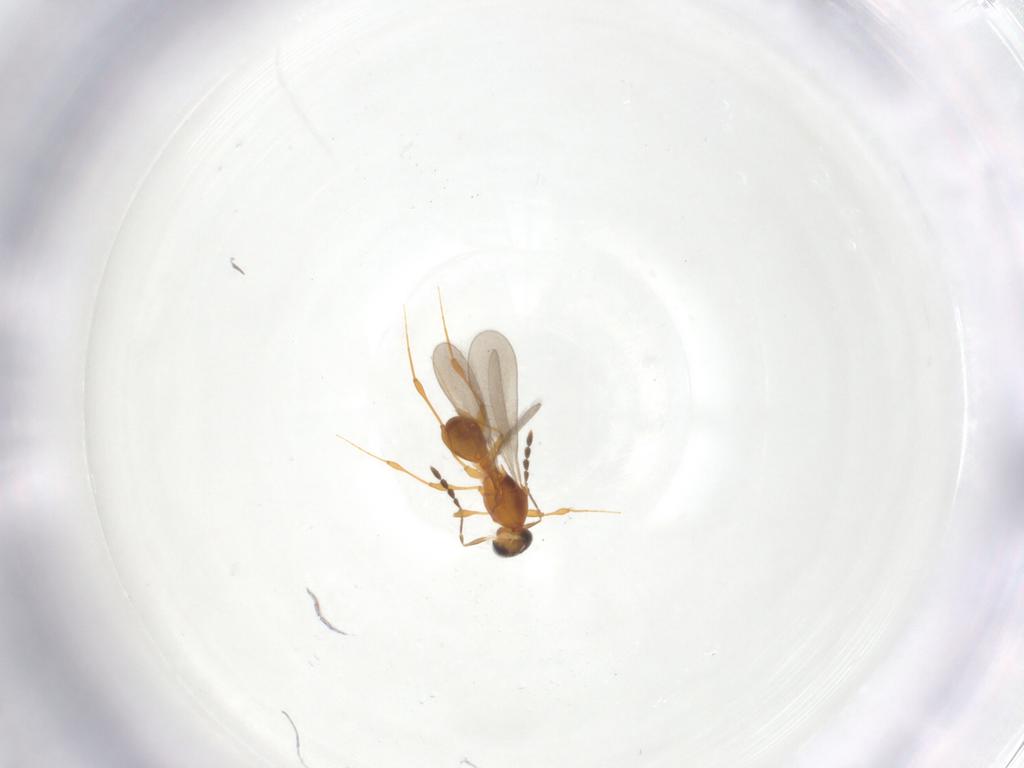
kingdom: Animalia
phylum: Arthropoda
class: Insecta
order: Hymenoptera
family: Platygastridae
